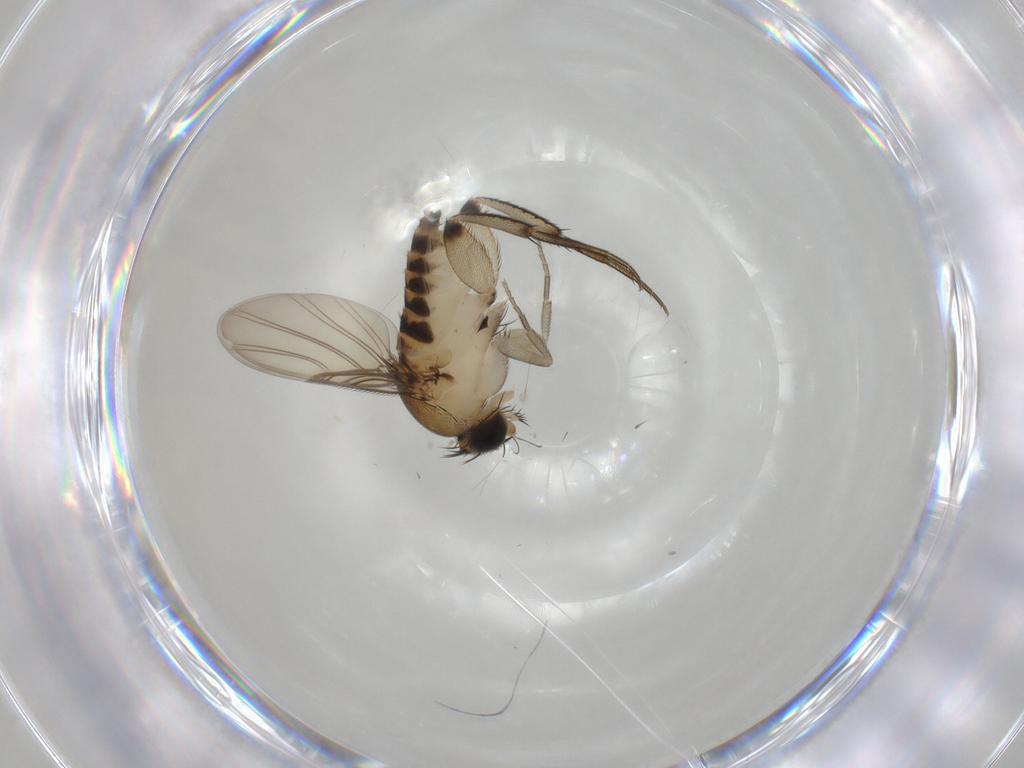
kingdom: Animalia
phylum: Arthropoda
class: Insecta
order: Diptera
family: Phoridae
